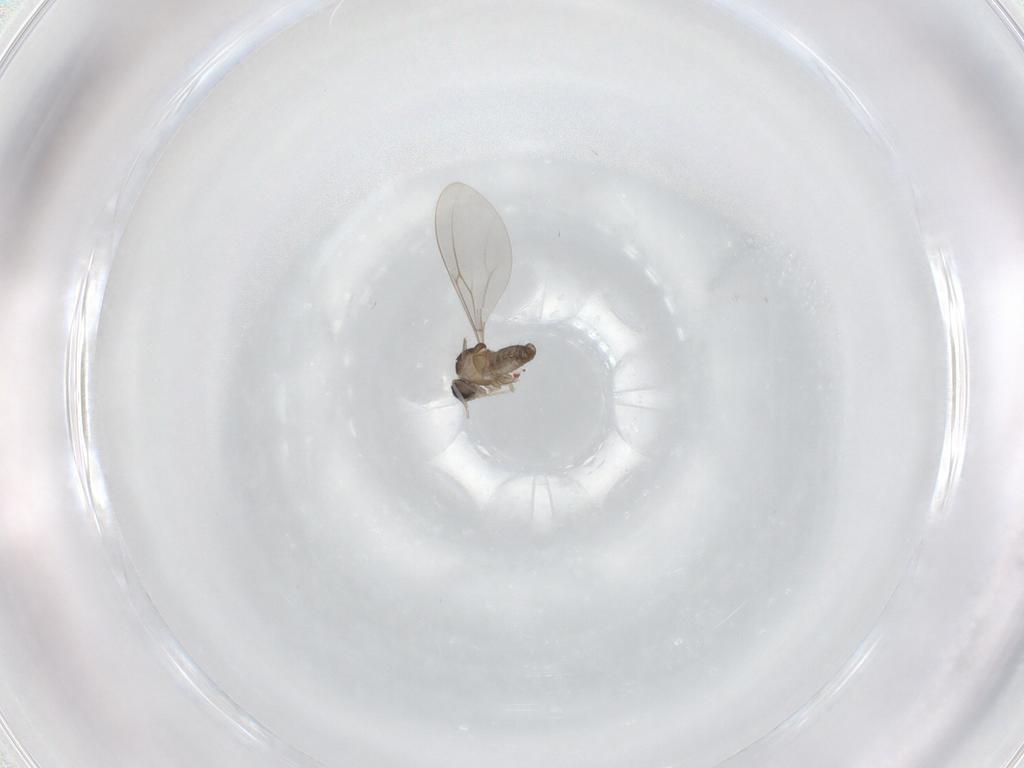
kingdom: Animalia
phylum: Arthropoda
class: Insecta
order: Diptera
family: Cecidomyiidae
